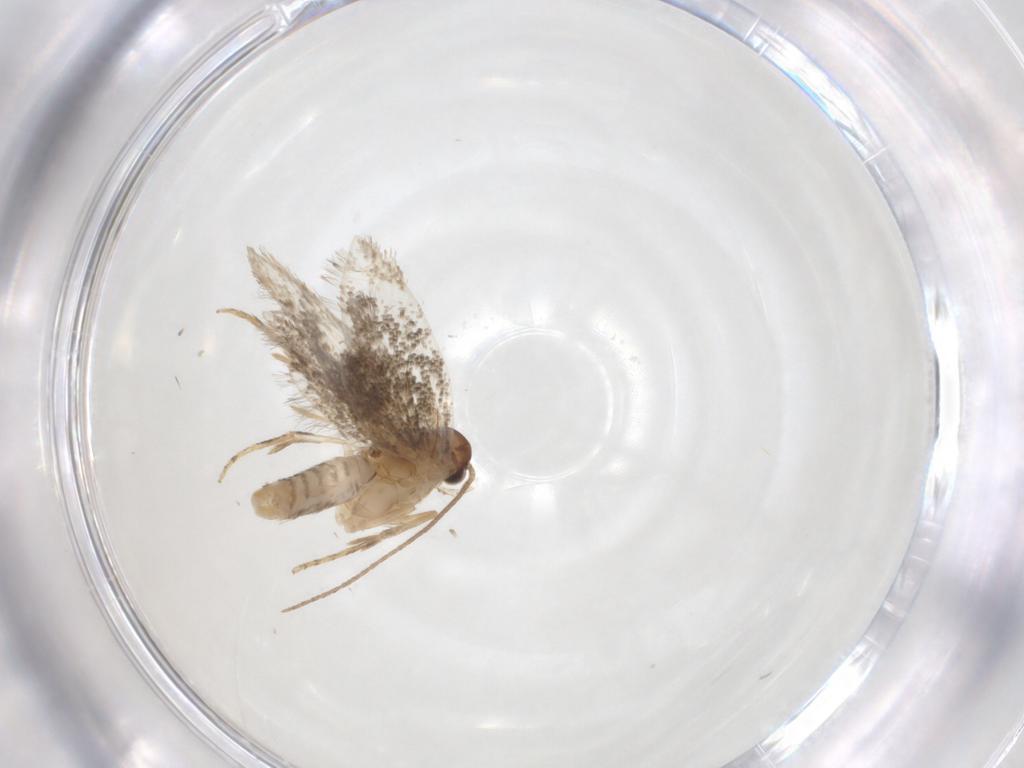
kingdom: Animalia
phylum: Arthropoda
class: Insecta
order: Lepidoptera
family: Gelechiidae
